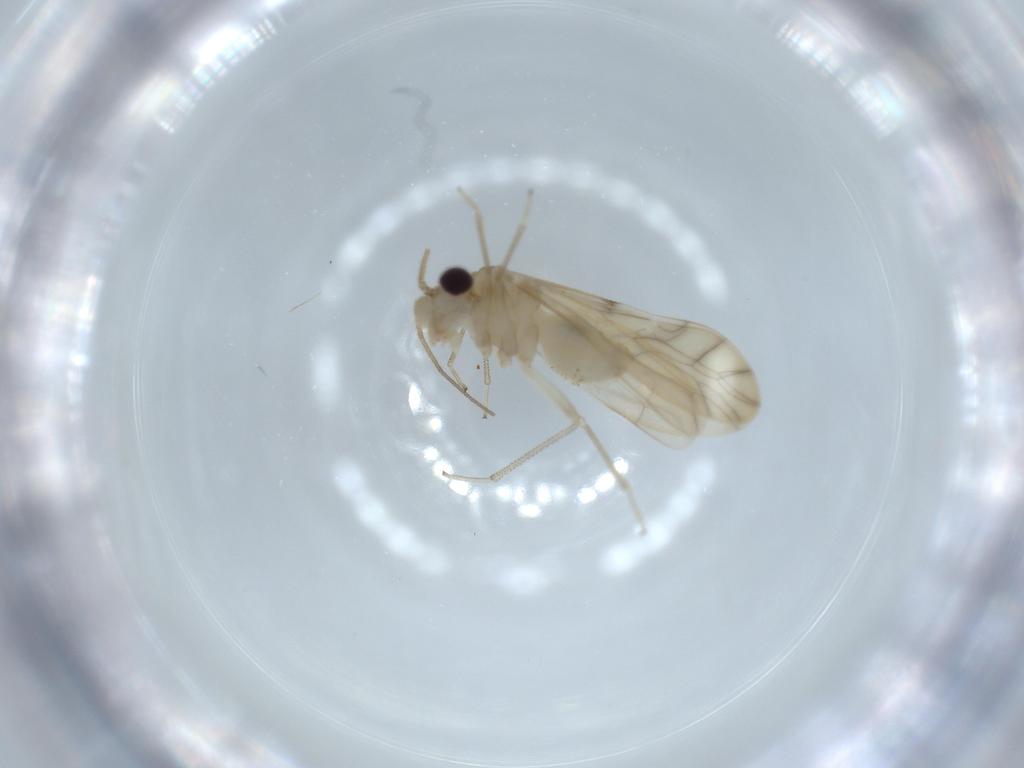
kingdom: Animalia
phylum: Arthropoda
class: Insecta
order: Psocodea
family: Caeciliusidae
